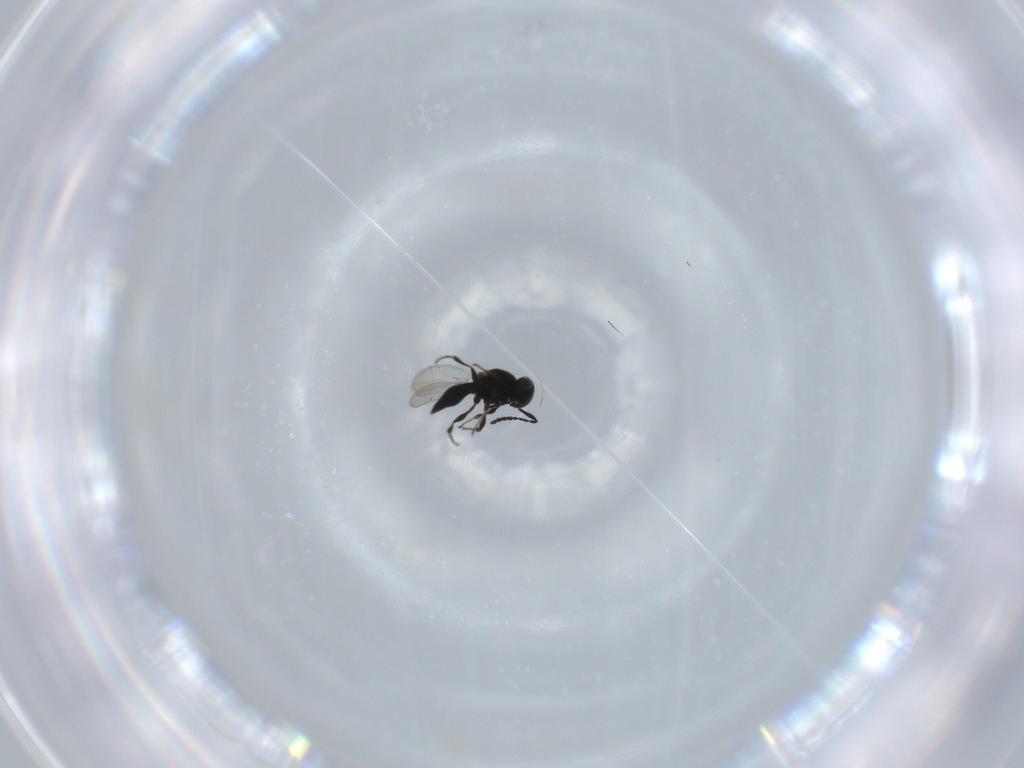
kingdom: Animalia
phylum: Arthropoda
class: Insecta
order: Diptera
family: Mythicomyiidae
